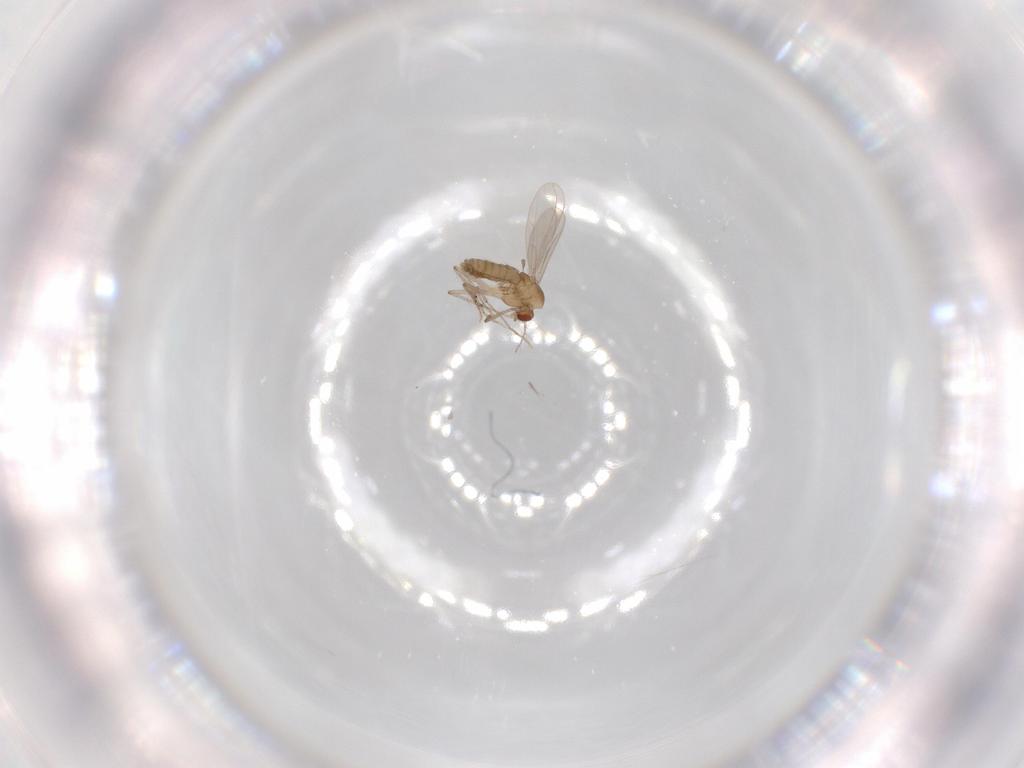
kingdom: Animalia
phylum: Arthropoda
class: Insecta
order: Diptera
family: Chironomidae
